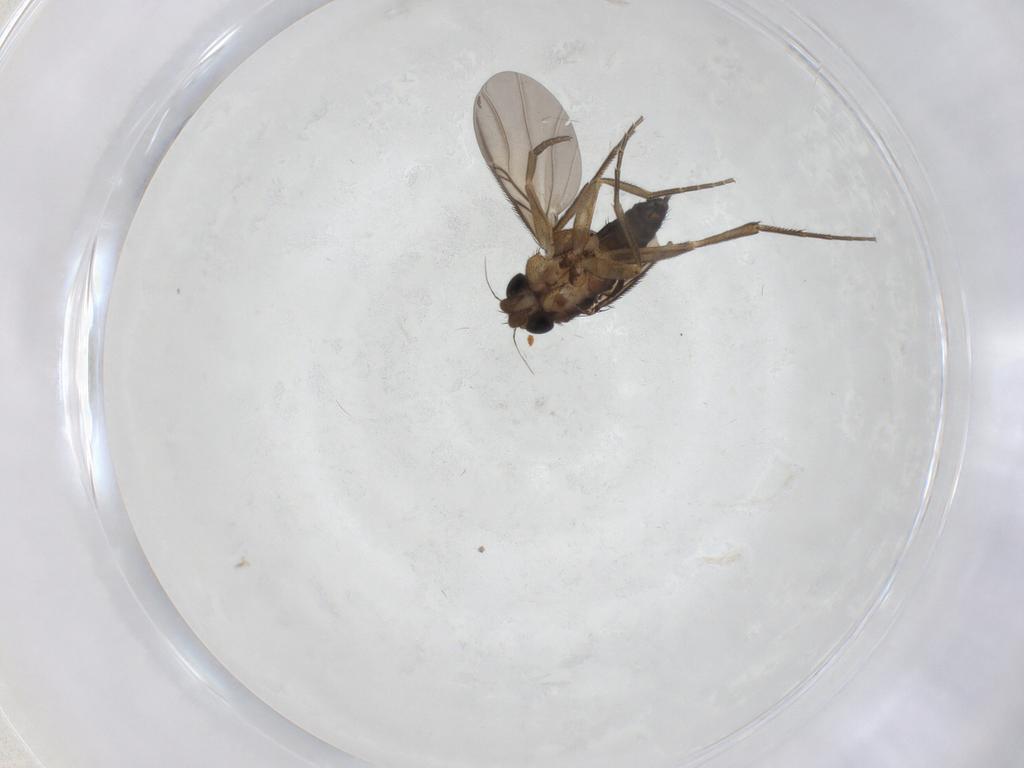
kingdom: Animalia
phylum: Arthropoda
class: Insecta
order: Diptera
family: Phoridae
